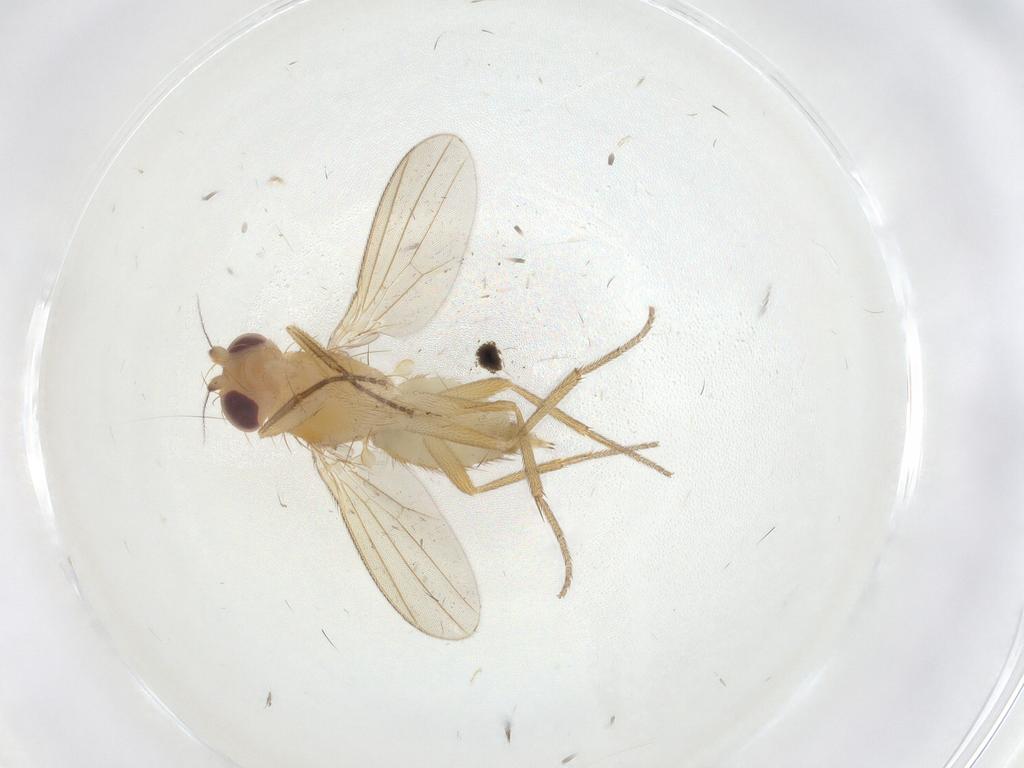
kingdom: Animalia
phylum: Arthropoda
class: Insecta
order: Diptera
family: Clusiidae
